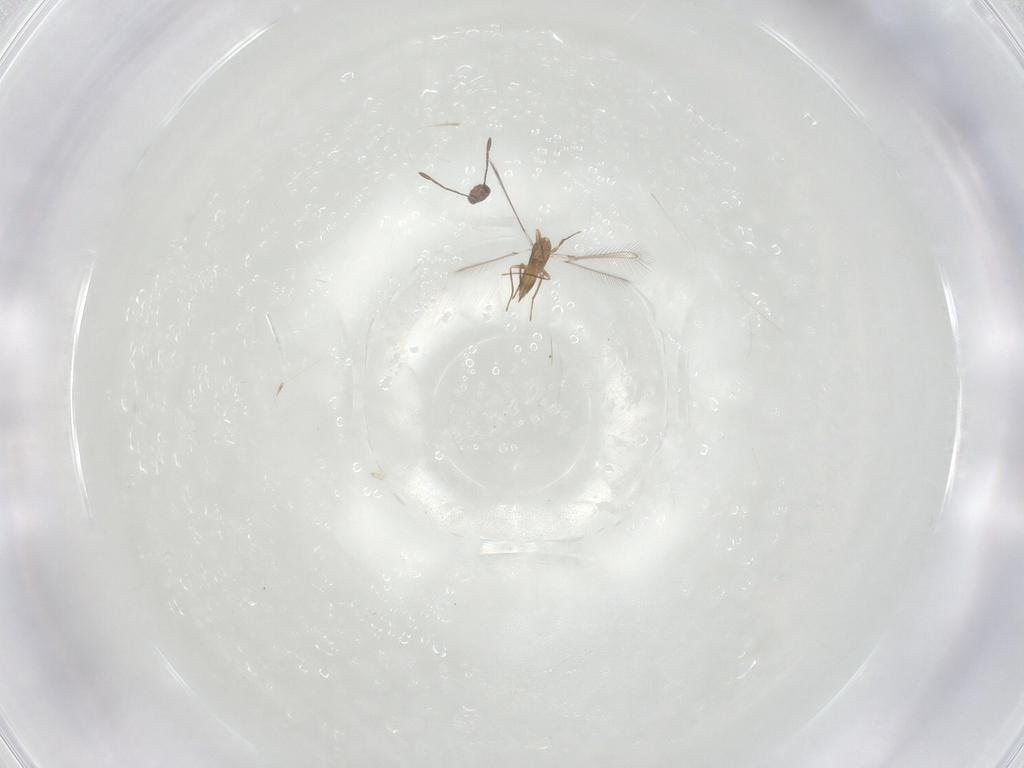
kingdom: Animalia
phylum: Arthropoda
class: Insecta
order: Hymenoptera
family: Mymaridae
